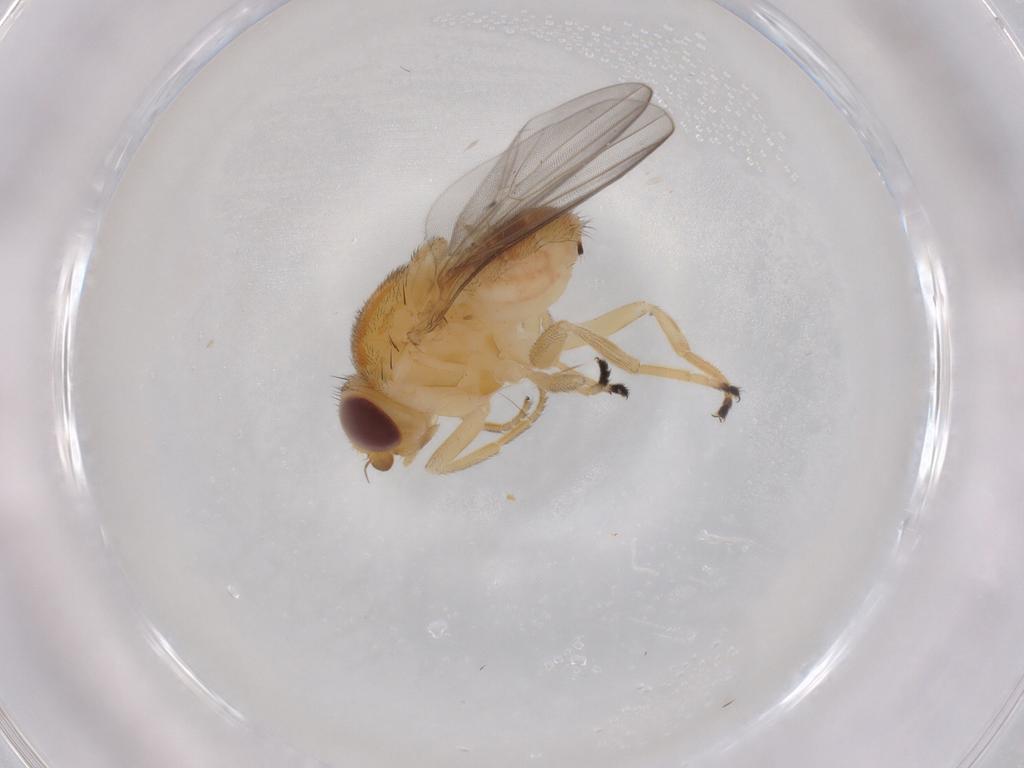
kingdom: Animalia
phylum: Arthropoda
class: Insecta
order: Diptera
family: Chloropidae
